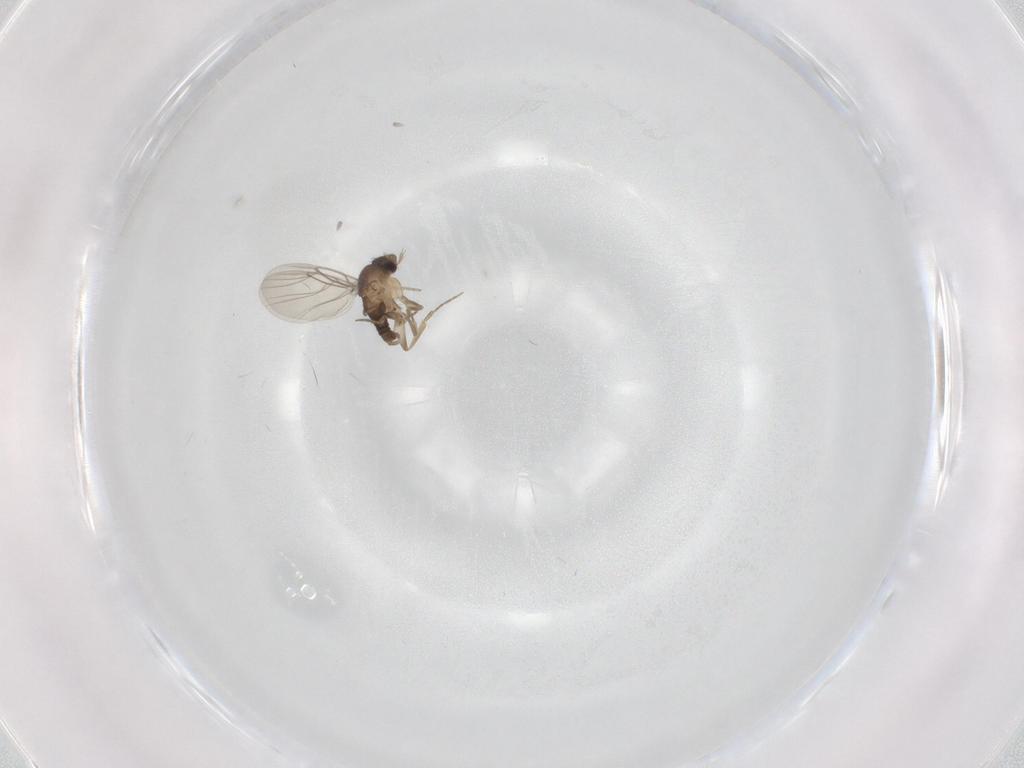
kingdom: Animalia
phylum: Arthropoda
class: Insecta
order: Diptera
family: Phoridae
